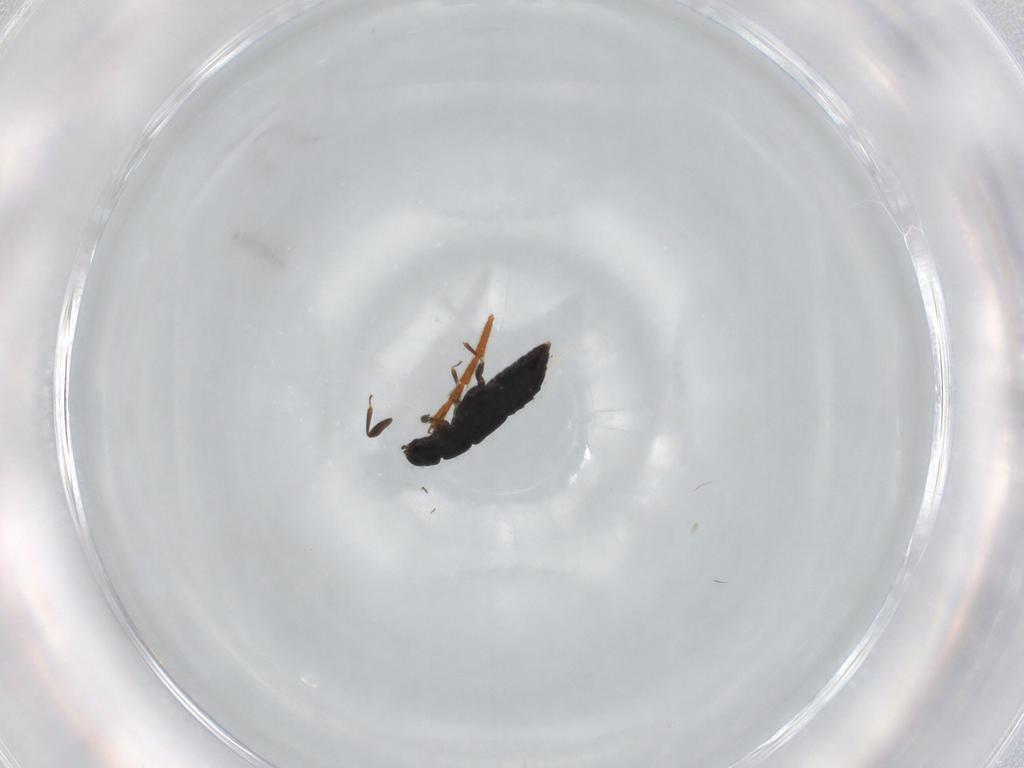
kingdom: Animalia
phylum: Arthropoda
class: Insecta
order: Coleoptera
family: Staphylinidae
